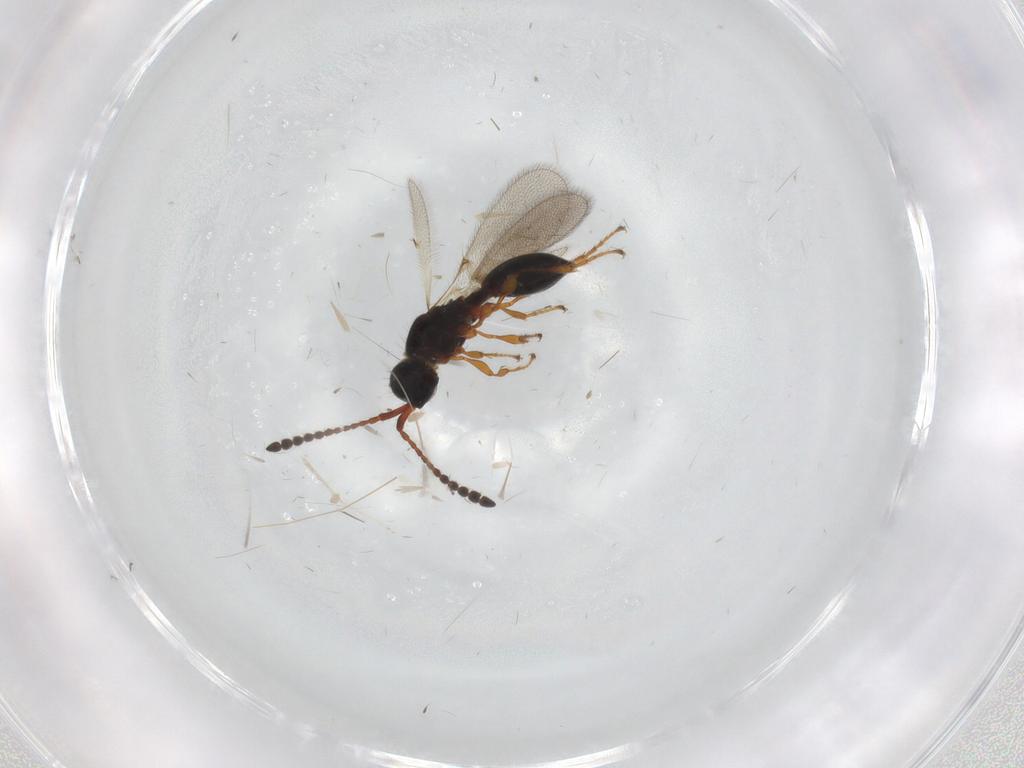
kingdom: Animalia
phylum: Arthropoda
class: Insecta
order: Hymenoptera
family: Diapriidae
